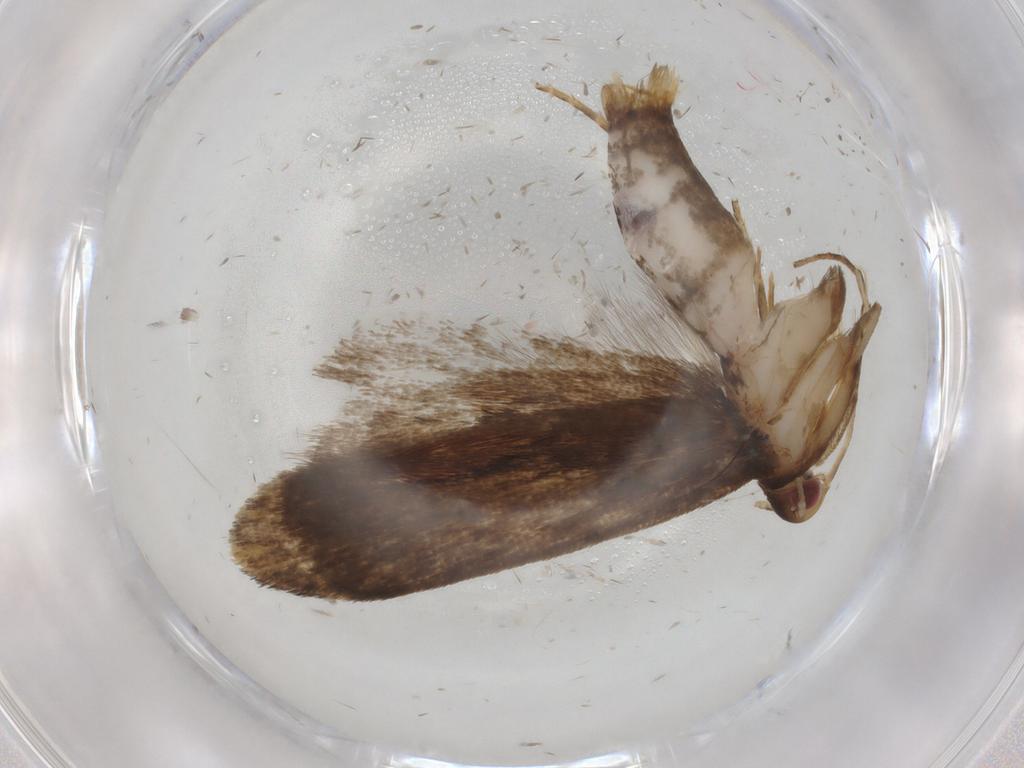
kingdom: Animalia
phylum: Arthropoda
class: Insecta
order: Lepidoptera
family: Gelechiidae
